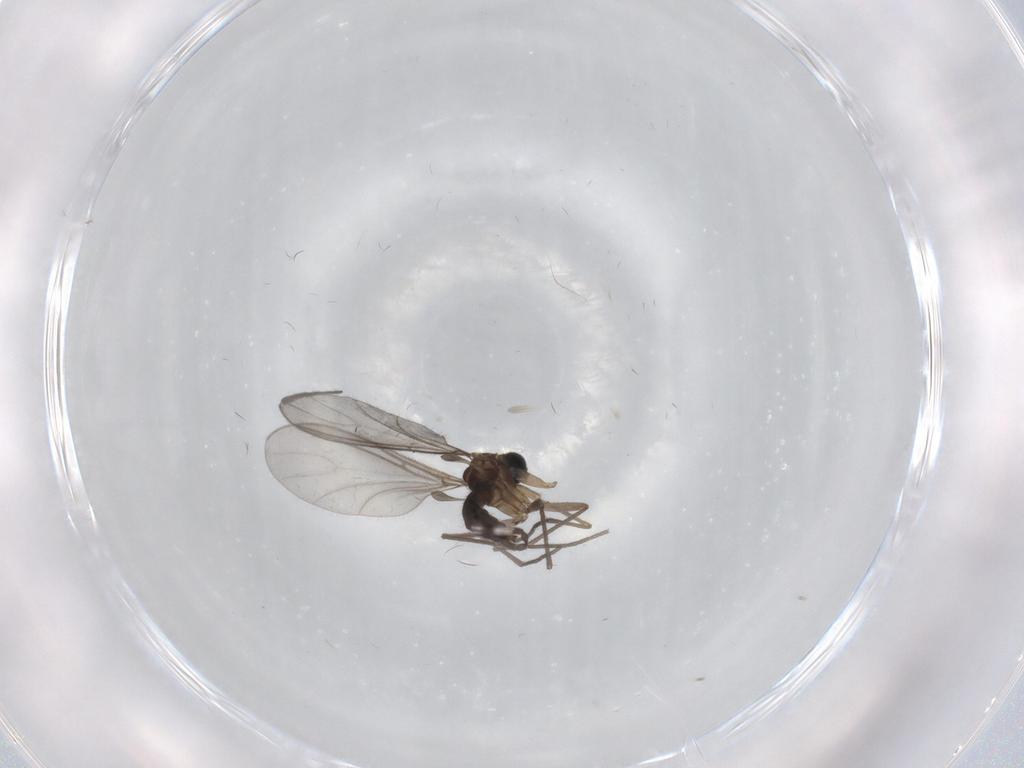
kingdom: Animalia
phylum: Arthropoda
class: Insecta
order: Diptera
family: Sciaridae
